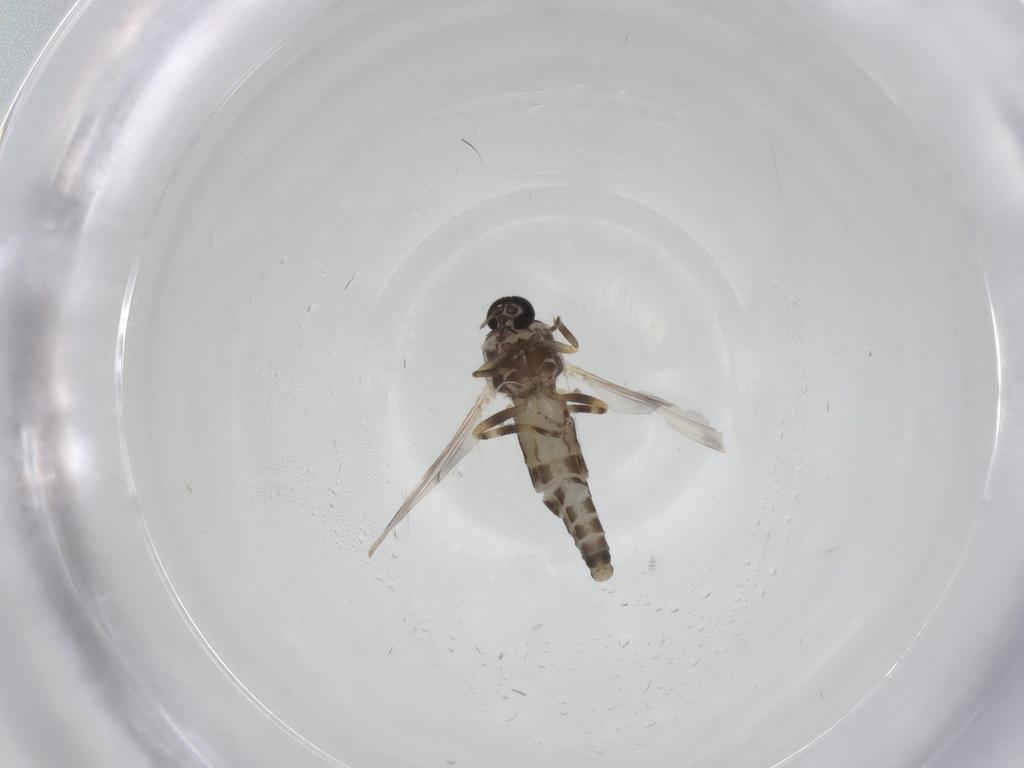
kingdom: Animalia
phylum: Arthropoda
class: Insecta
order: Diptera
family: Ceratopogonidae
